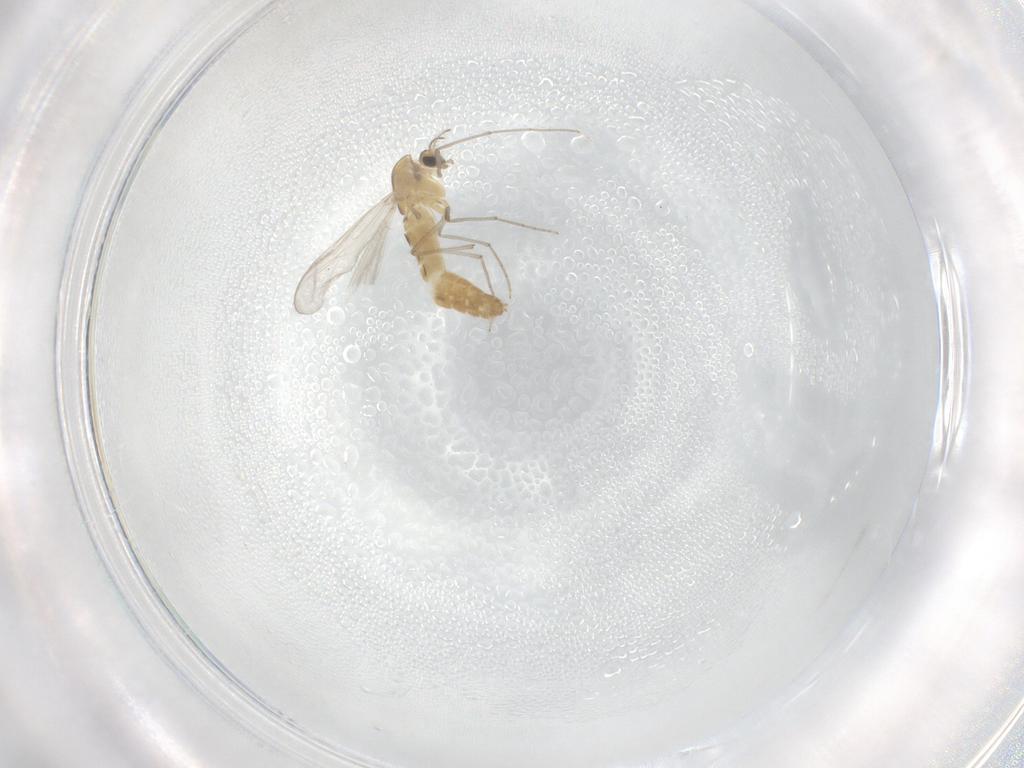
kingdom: Animalia
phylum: Arthropoda
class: Insecta
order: Diptera
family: Chironomidae
